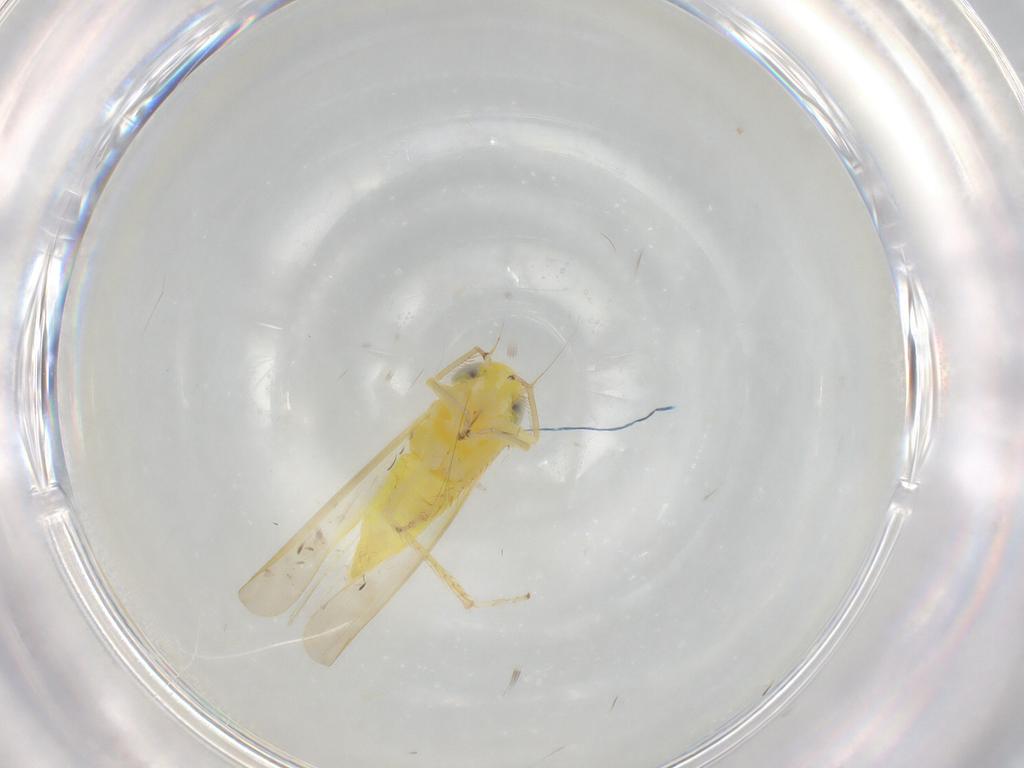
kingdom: Animalia
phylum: Arthropoda
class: Insecta
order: Hemiptera
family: Cicadellidae
